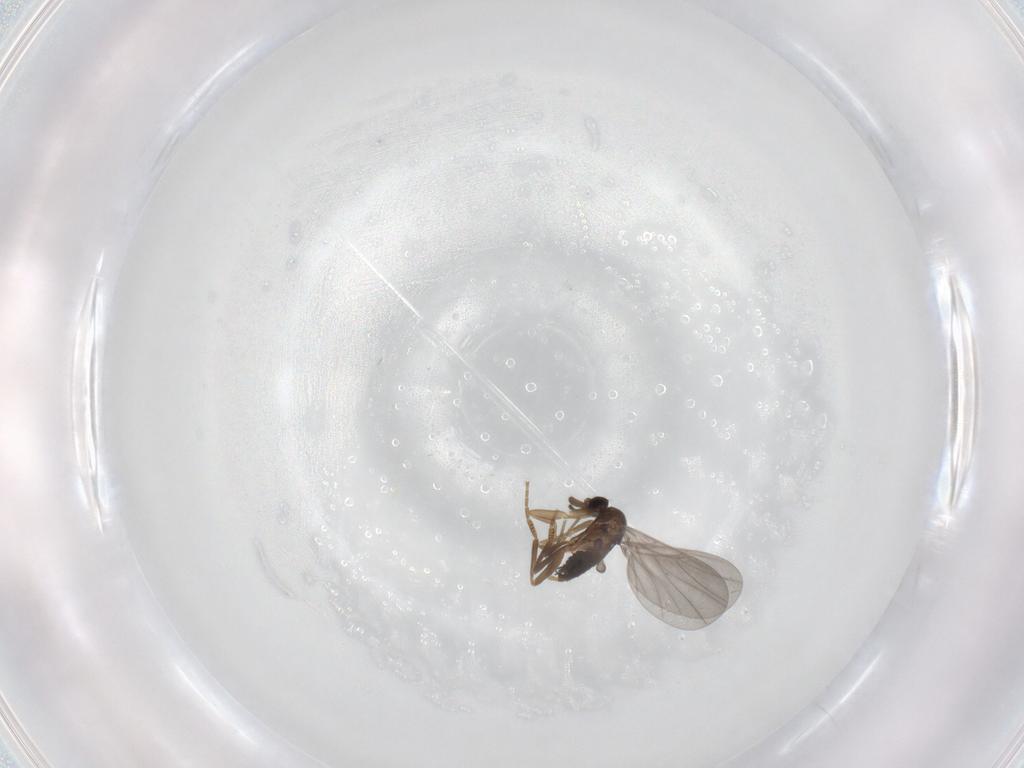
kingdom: Animalia
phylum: Arthropoda
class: Insecta
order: Diptera
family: Phoridae
